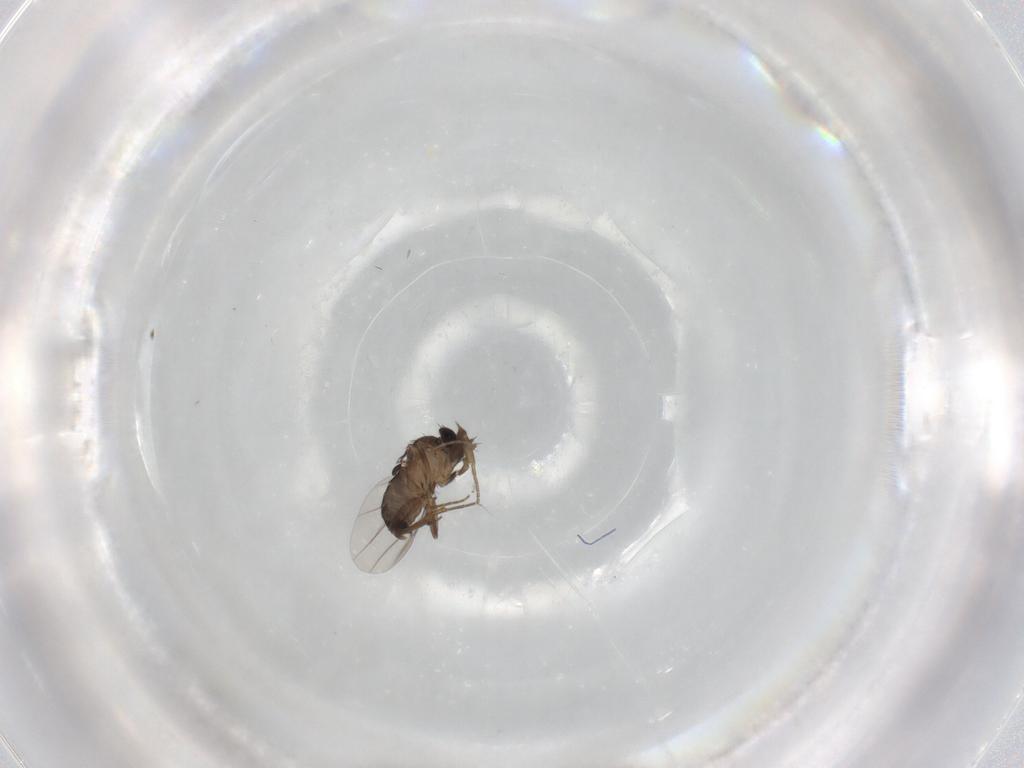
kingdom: Animalia
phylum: Arthropoda
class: Insecta
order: Diptera
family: Phoridae
